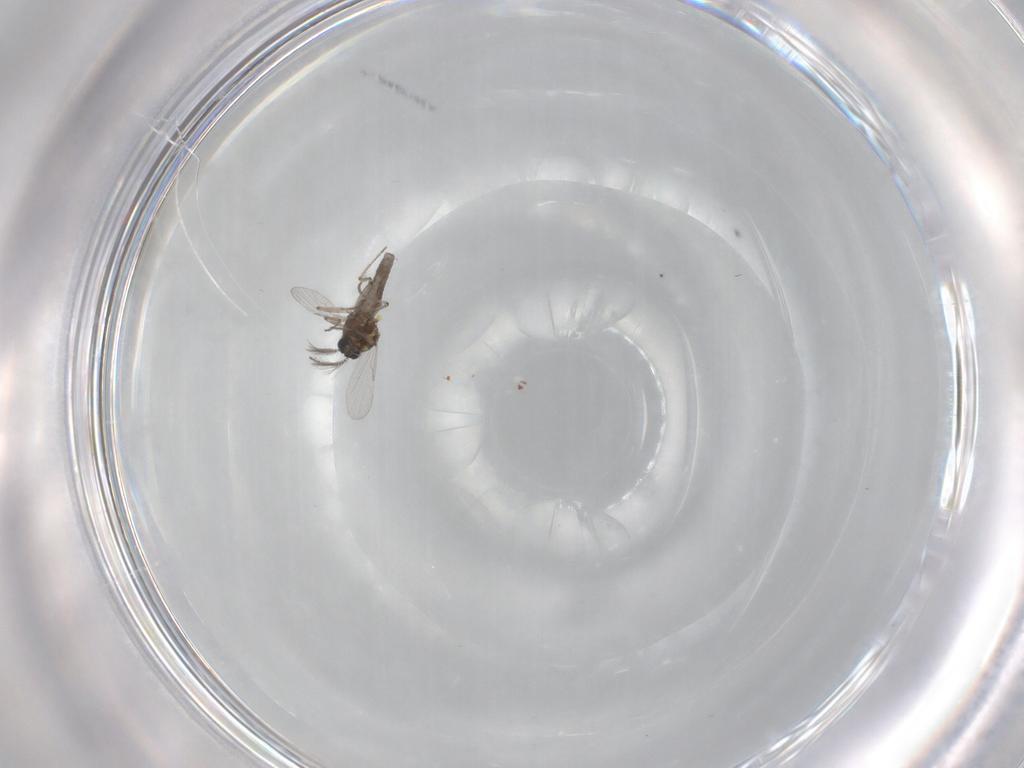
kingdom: Animalia
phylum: Arthropoda
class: Insecta
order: Diptera
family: Ceratopogonidae
